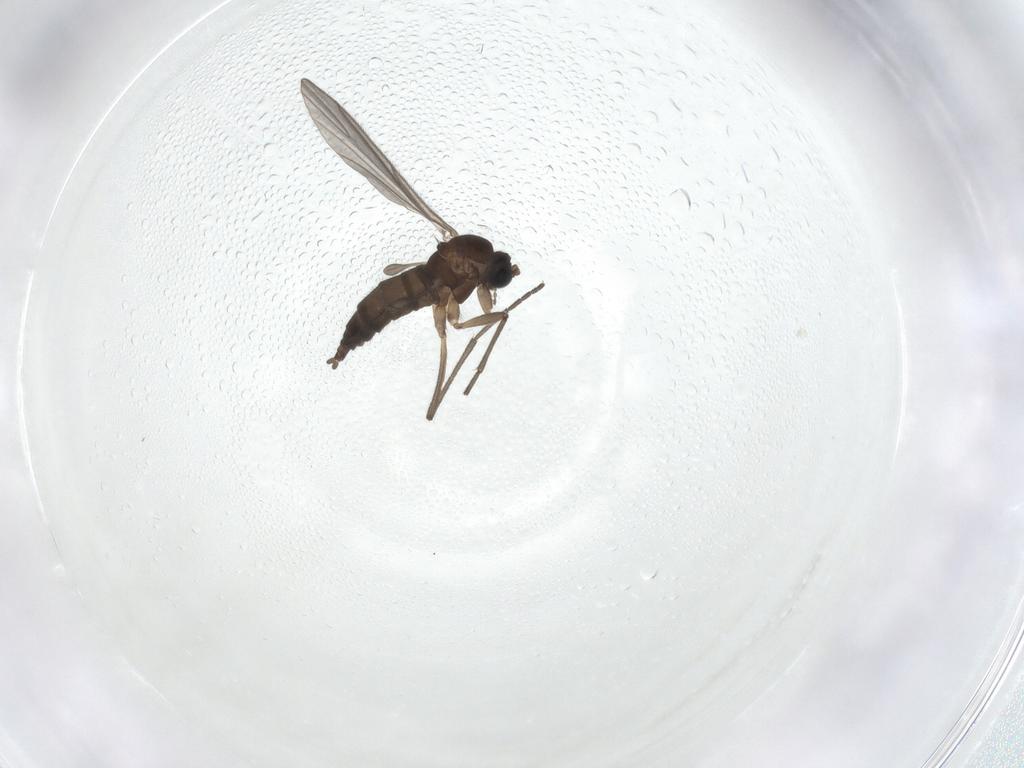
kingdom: Animalia
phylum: Arthropoda
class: Insecta
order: Diptera
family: Sciaridae
